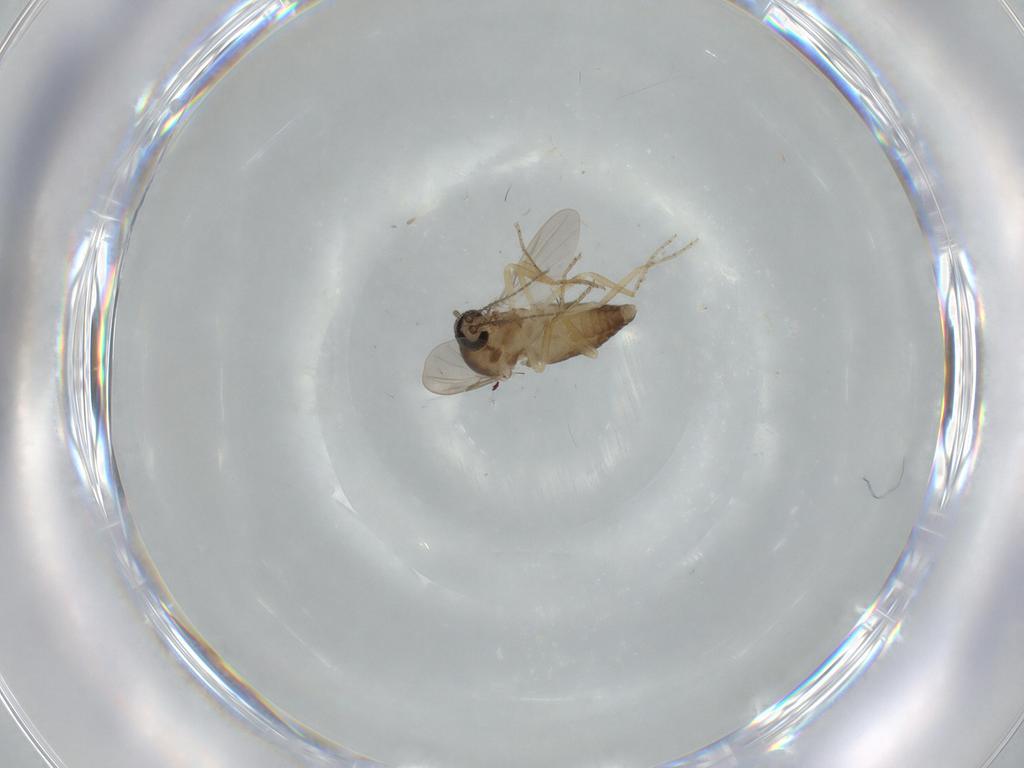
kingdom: Animalia
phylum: Arthropoda
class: Insecta
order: Diptera
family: Ceratopogonidae
